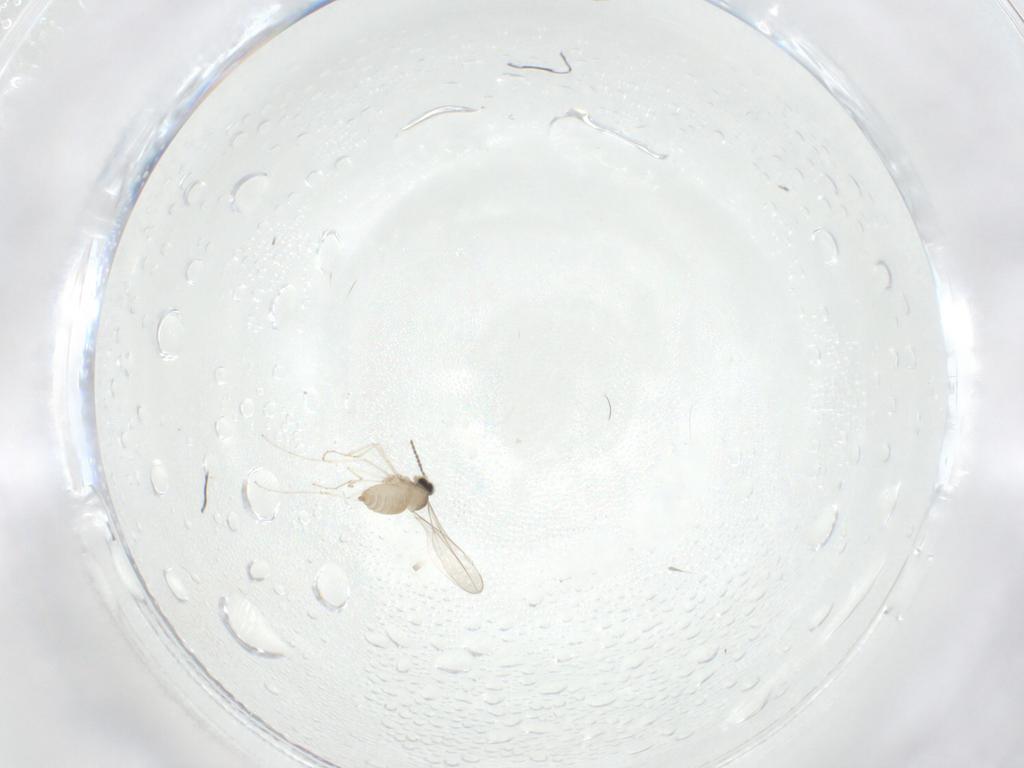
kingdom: Animalia
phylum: Arthropoda
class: Insecta
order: Diptera
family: Cecidomyiidae
